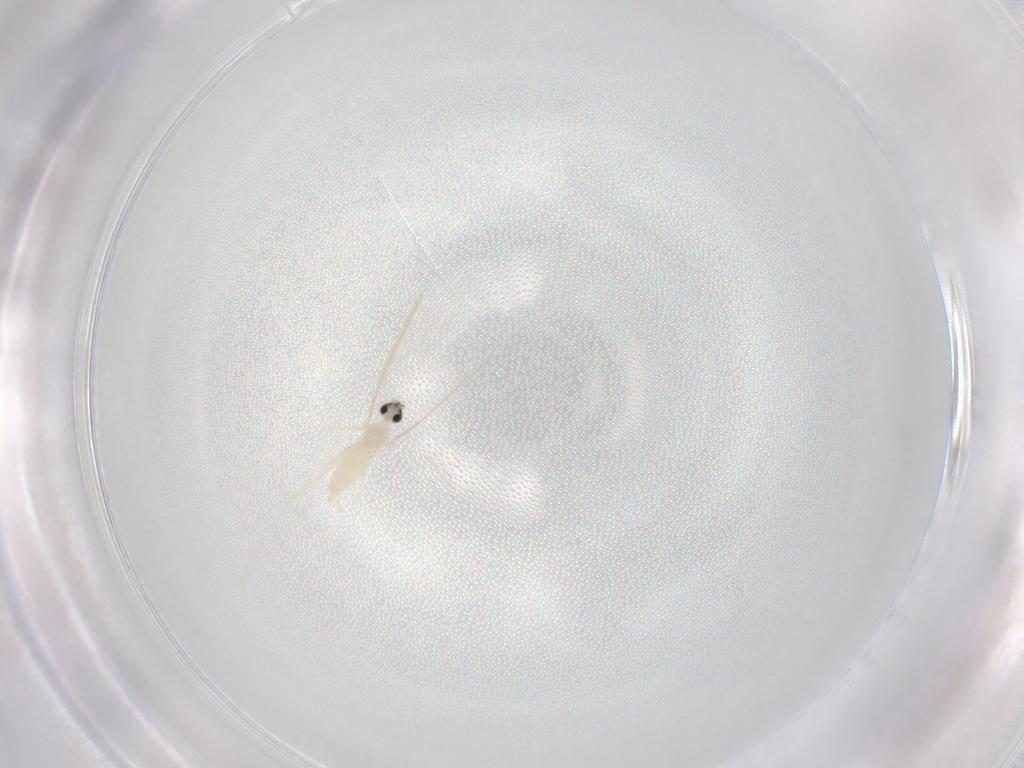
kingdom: Animalia
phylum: Arthropoda
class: Insecta
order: Diptera
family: Cecidomyiidae
